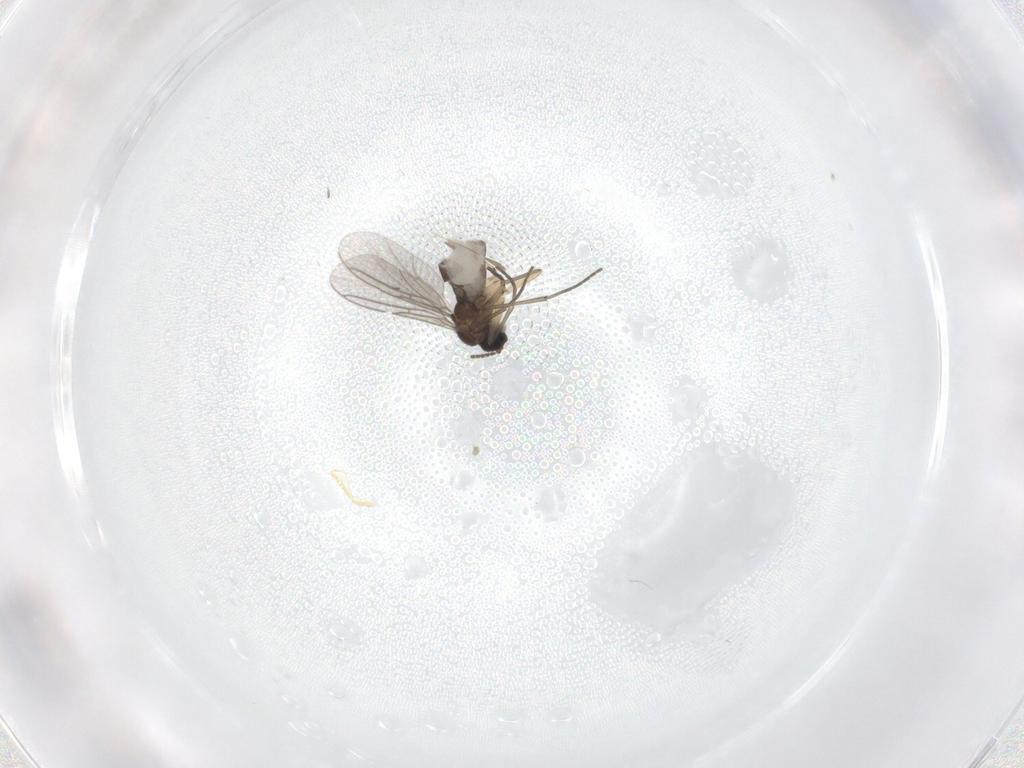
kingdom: Animalia
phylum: Arthropoda
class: Insecta
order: Diptera
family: Sciaridae
